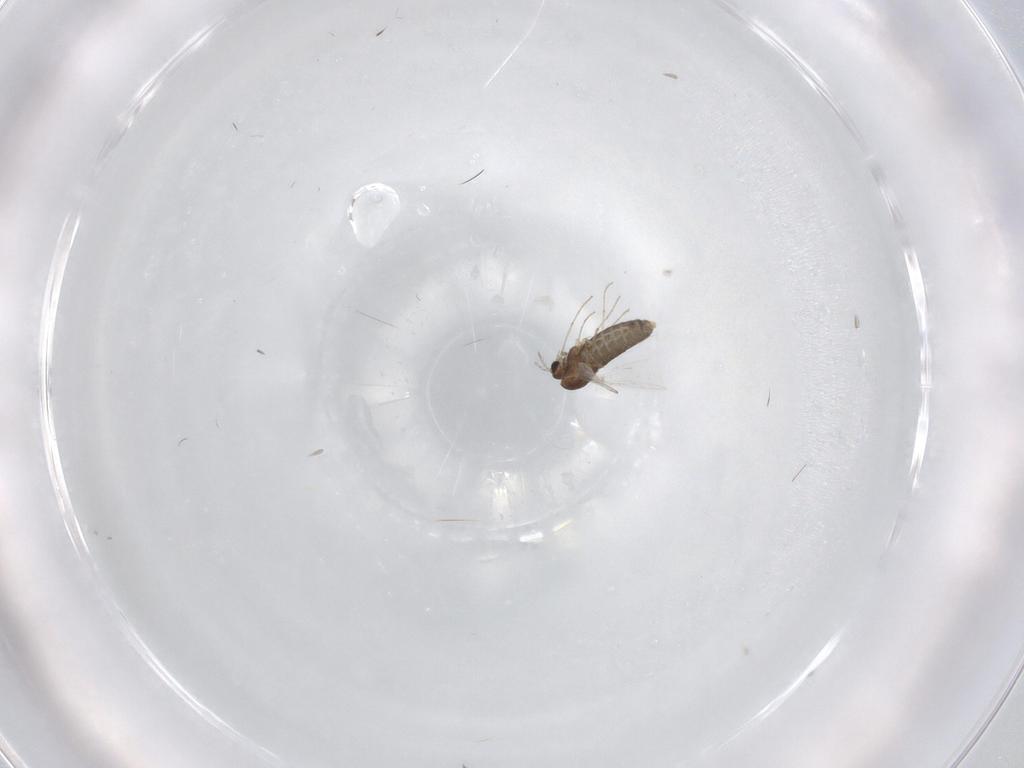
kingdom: Animalia
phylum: Arthropoda
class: Insecta
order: Diptera
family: Chironomidae
